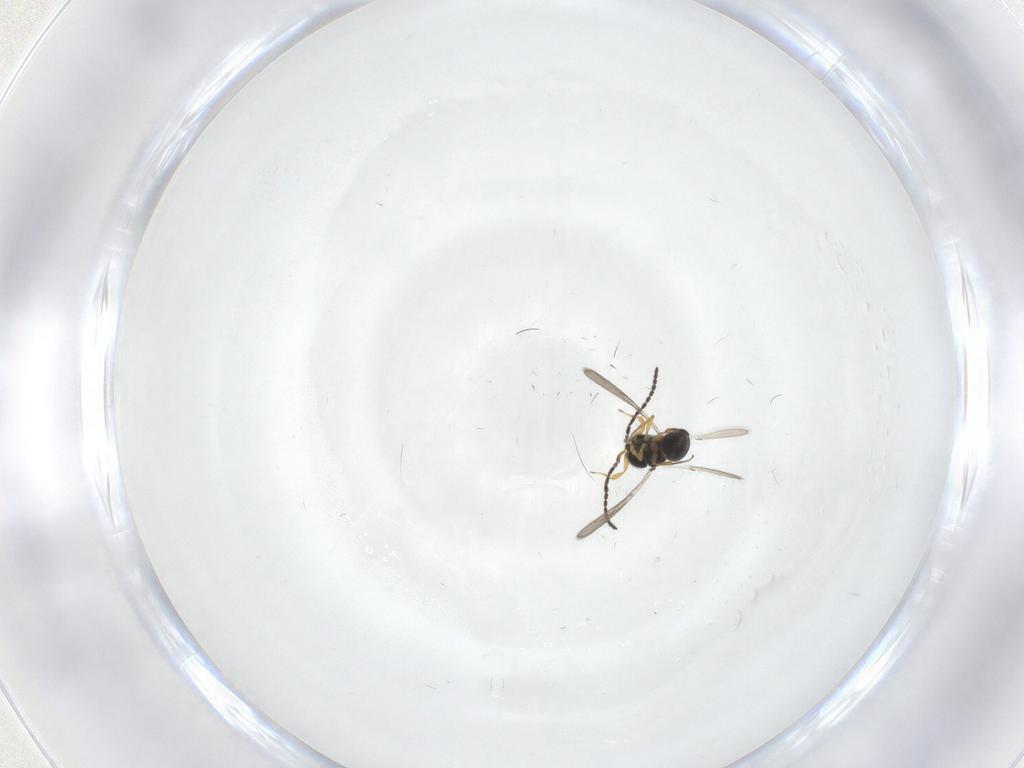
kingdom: Animalia
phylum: Arthropoda
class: Insecta
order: Hymenoptera
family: Scelionidae
